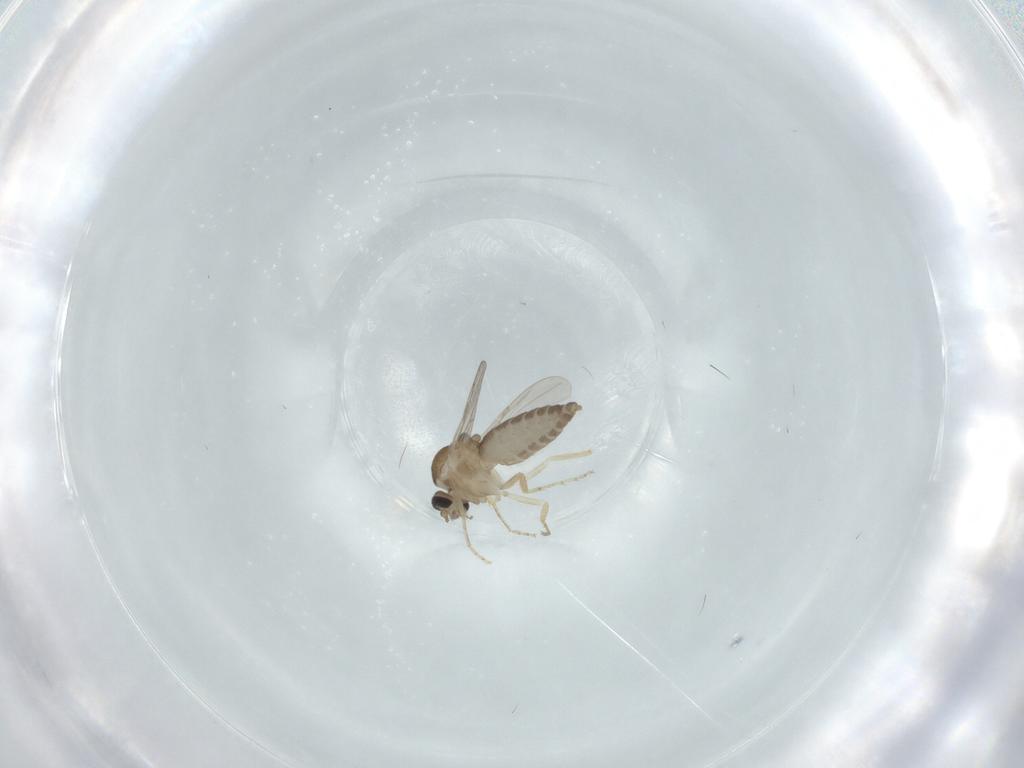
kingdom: Animalia
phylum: Arthropoda
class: Insecta
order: Diptera
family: Ceratopogonidae
